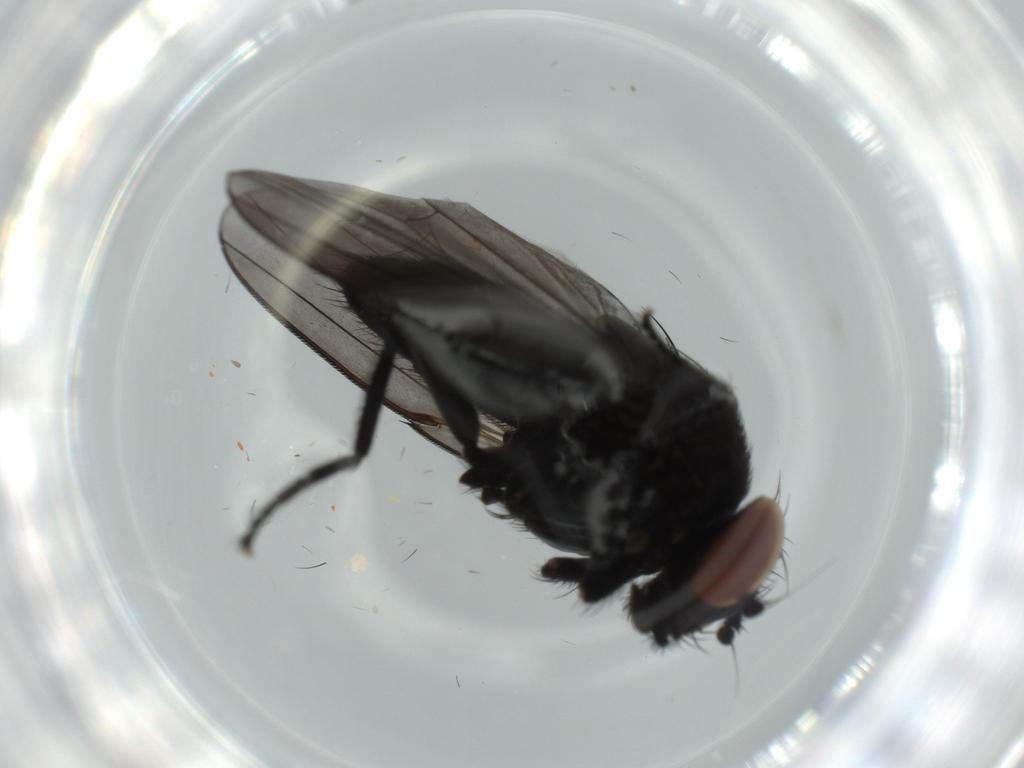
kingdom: Animalia
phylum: Arthropoda
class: Insecta
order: Diptera
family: Milichiidae
